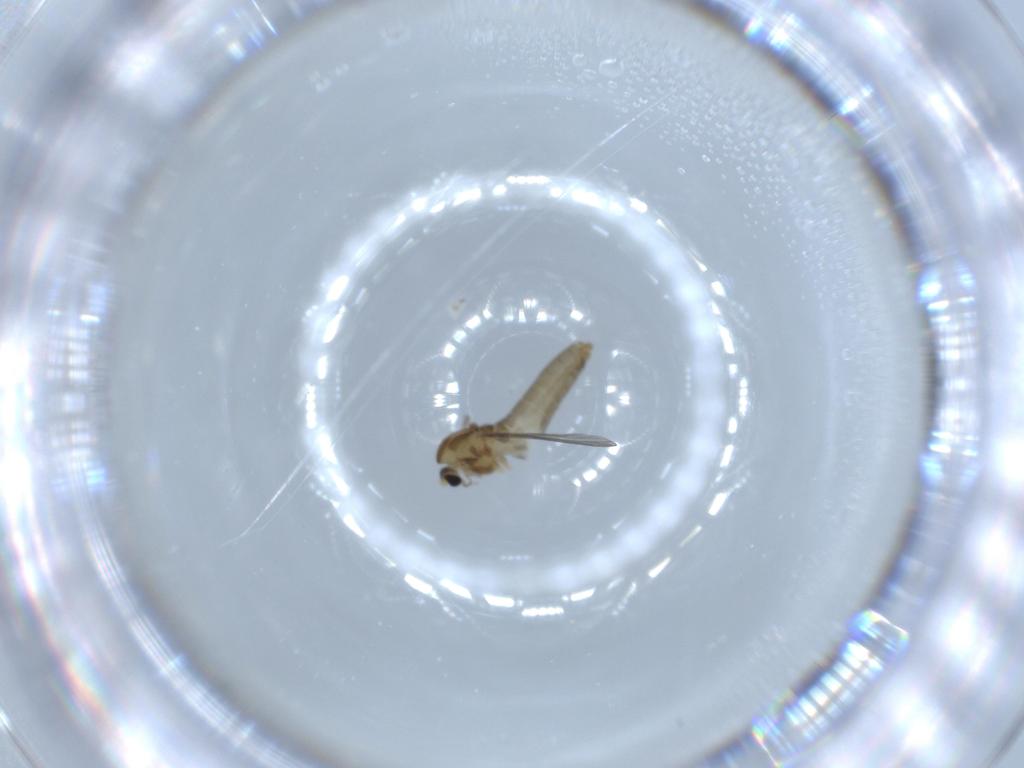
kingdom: Animalia
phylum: Arthropoda
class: Insecta
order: Diptera
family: Chironomidae
